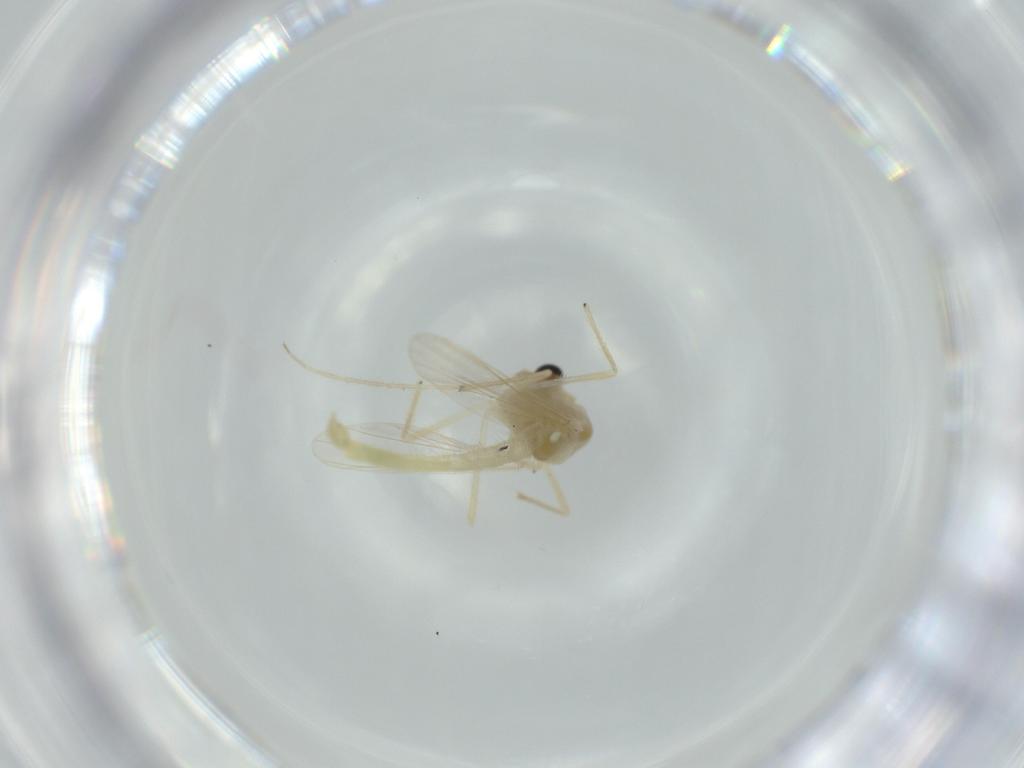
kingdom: Animalia
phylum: Arthropoda
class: Insecta
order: Diptera
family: Chironomidae
